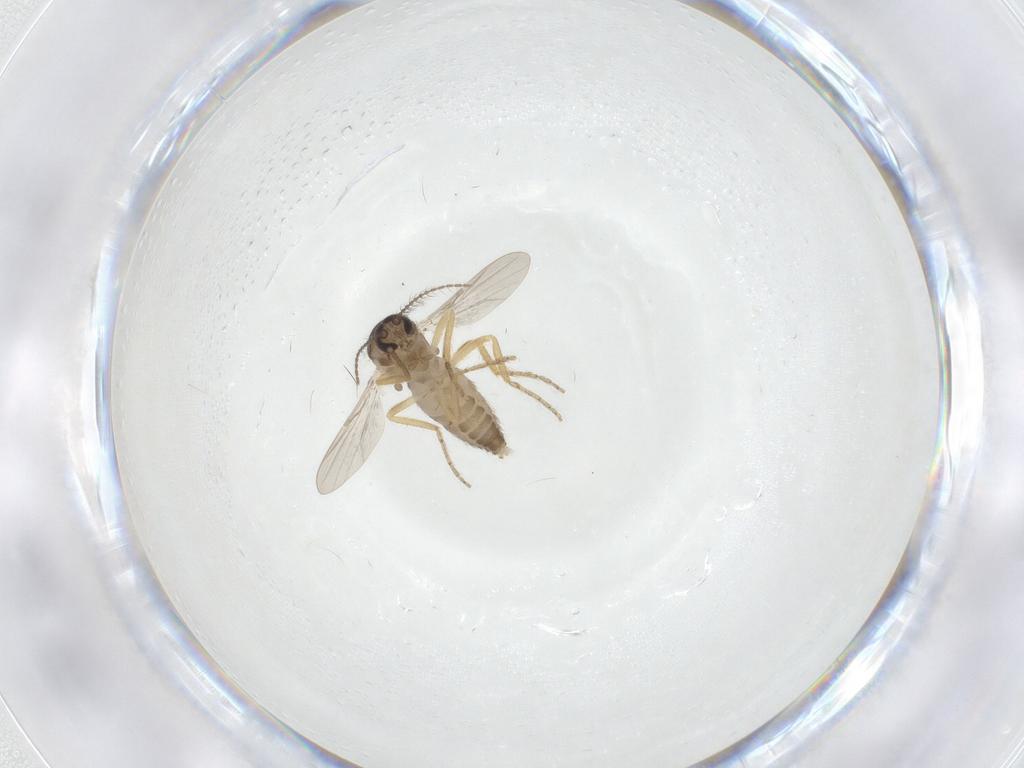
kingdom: Animalia
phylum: Arthropoda
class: Insecta
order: Diptera
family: Ceratopogonidae
